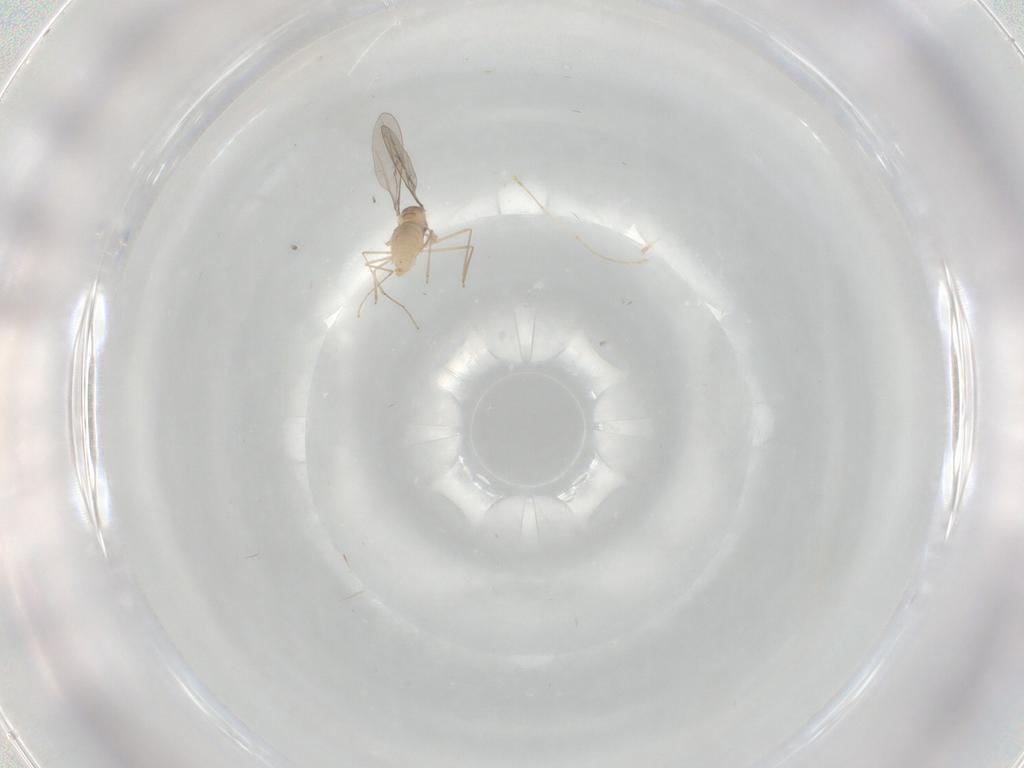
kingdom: Animalia
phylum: Arthropoda
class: Insecta
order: Diptera
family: Cecidomyiidae
